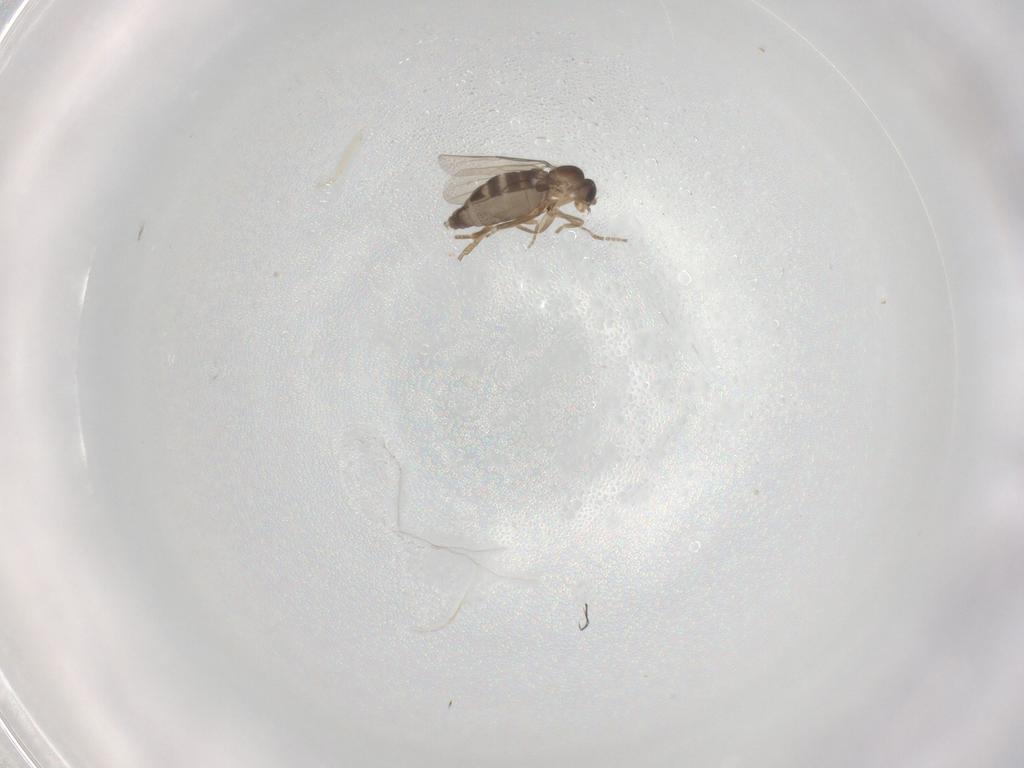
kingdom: Animalia
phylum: Arthropoda
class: Insecta
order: Diptera
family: Phoridae
